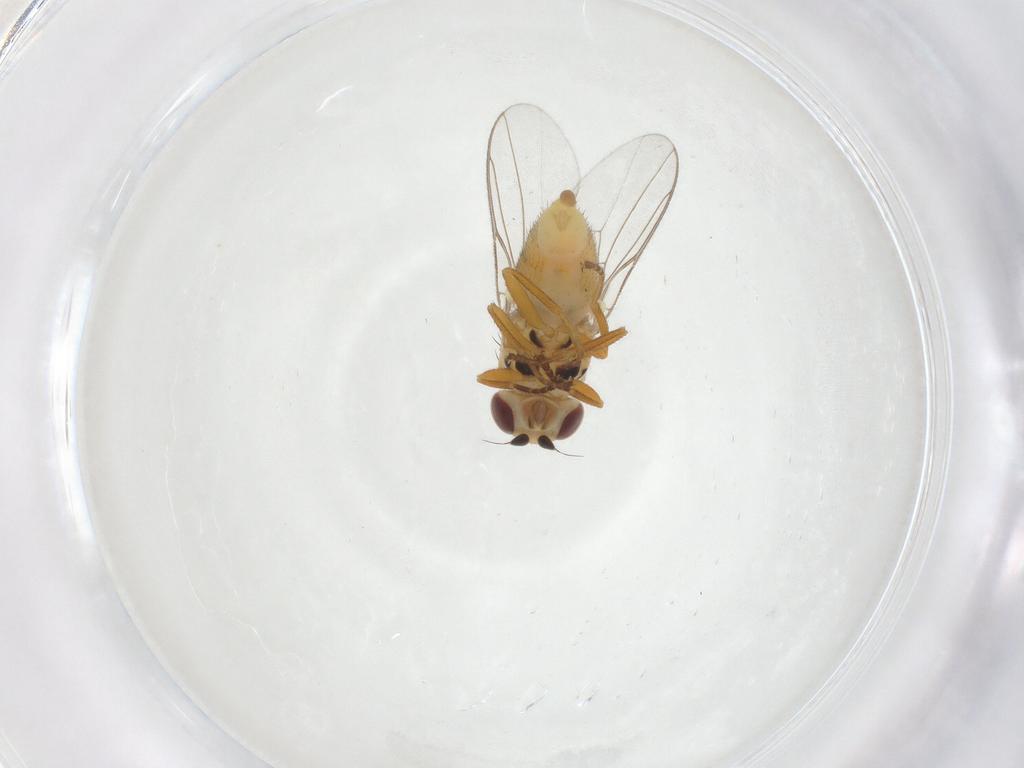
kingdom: Animalia
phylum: Arthropoda
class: Insecta
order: Diptera
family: Chloropidae
